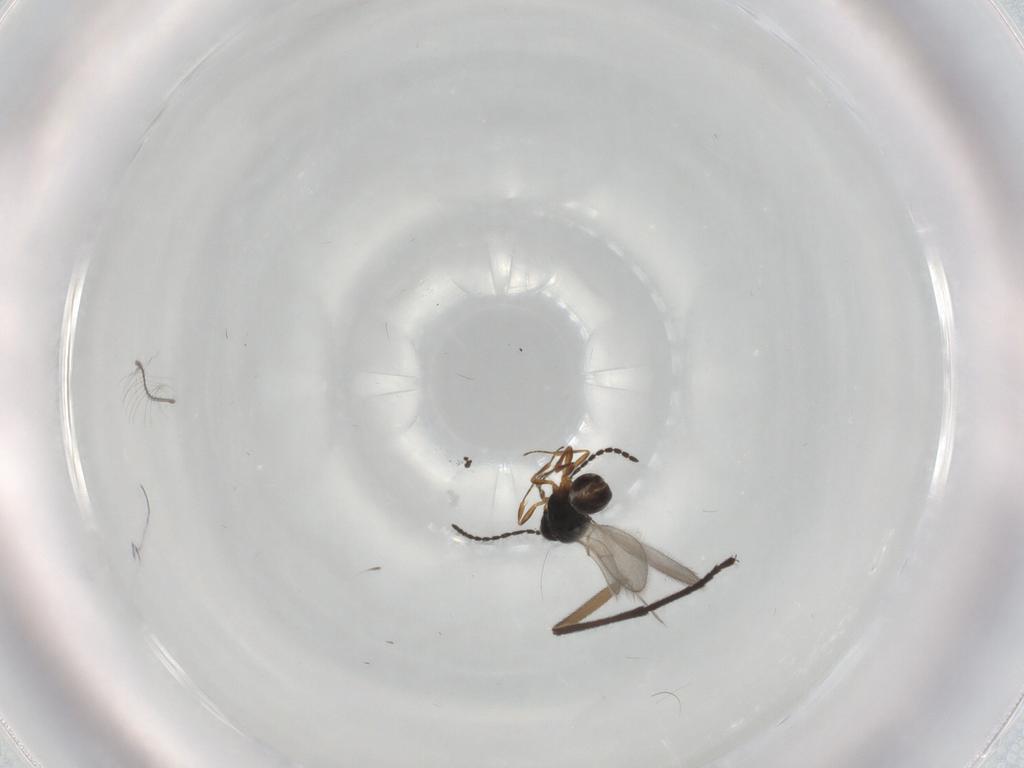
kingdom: Animalia
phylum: Arthropoda
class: Insecta
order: Hymenoptera
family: Scelionidae
